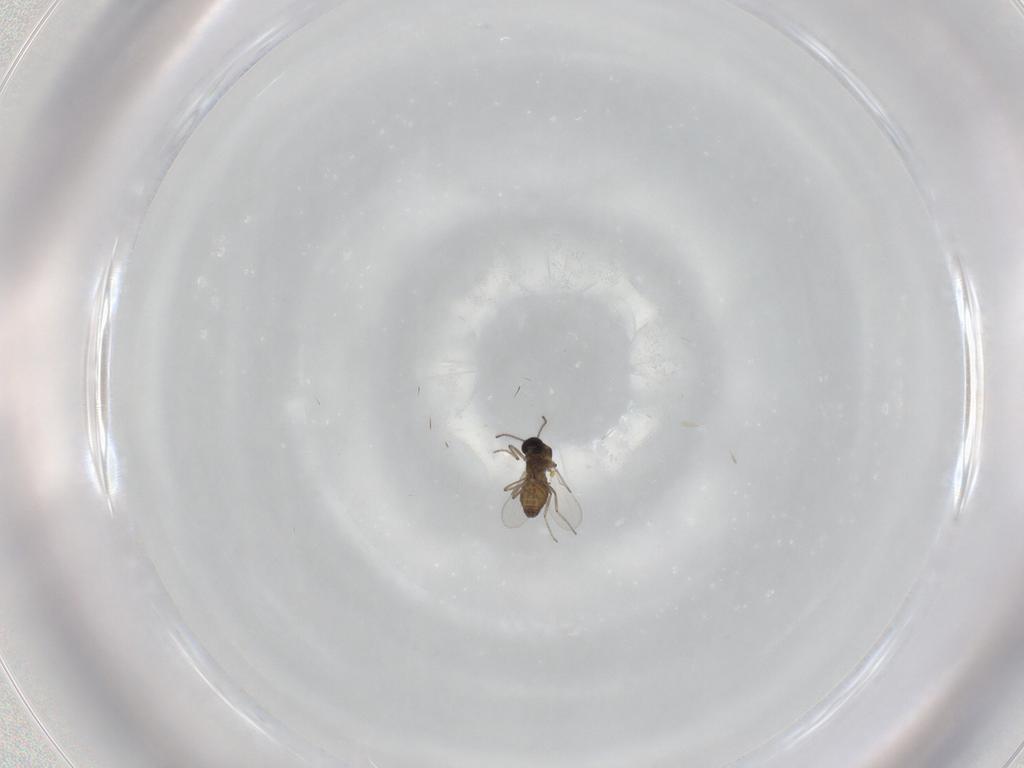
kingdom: Animalia
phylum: Arthropoda
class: Insecta
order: Diptera
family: Ceratopogonidae
